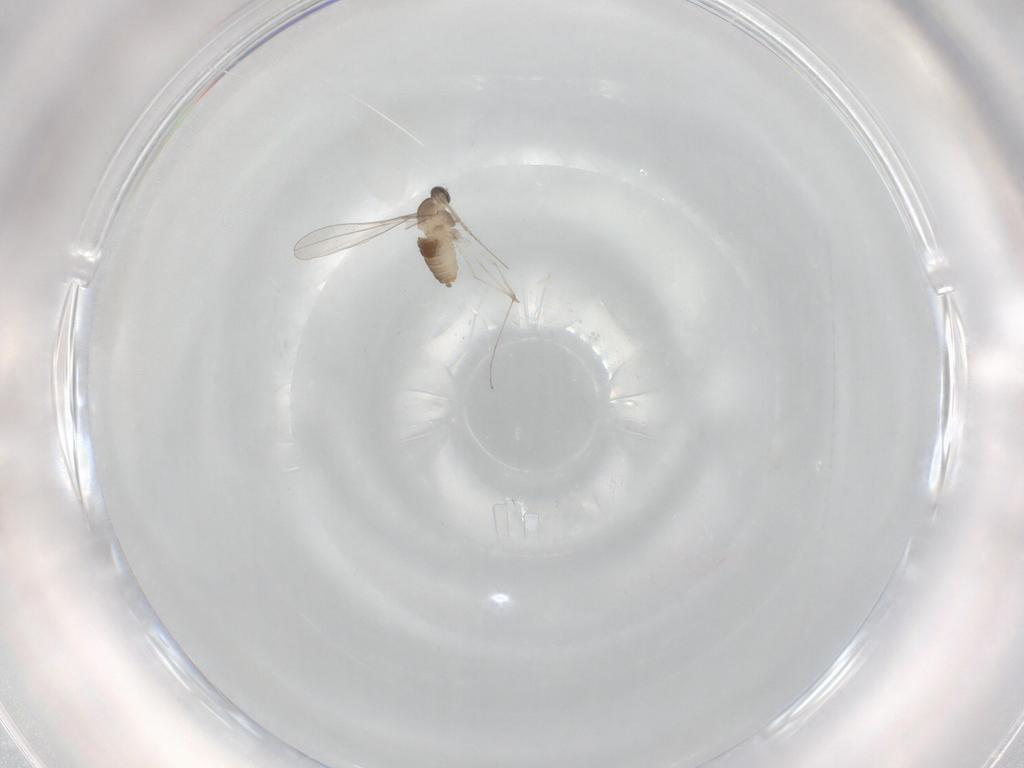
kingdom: Animalia
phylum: Arthropoda
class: Insecta
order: Diptera
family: Cecidomyiidae
